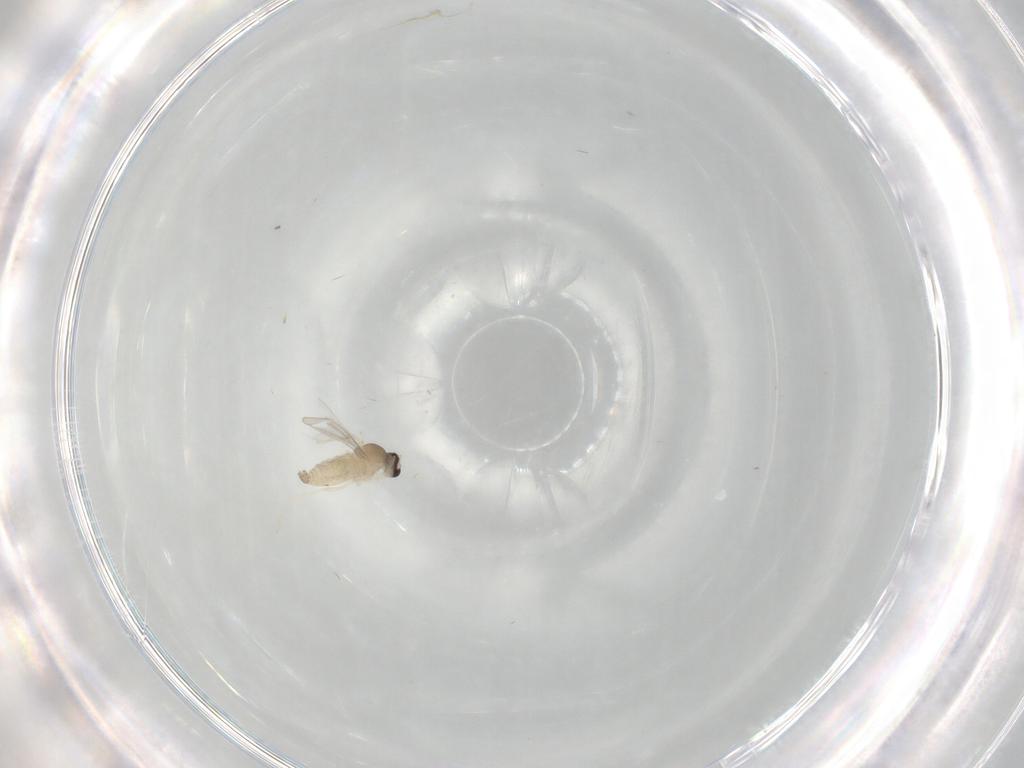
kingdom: Animalia
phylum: Arthropoda
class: Insecta
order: Diptera
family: Cecidomyiidae
